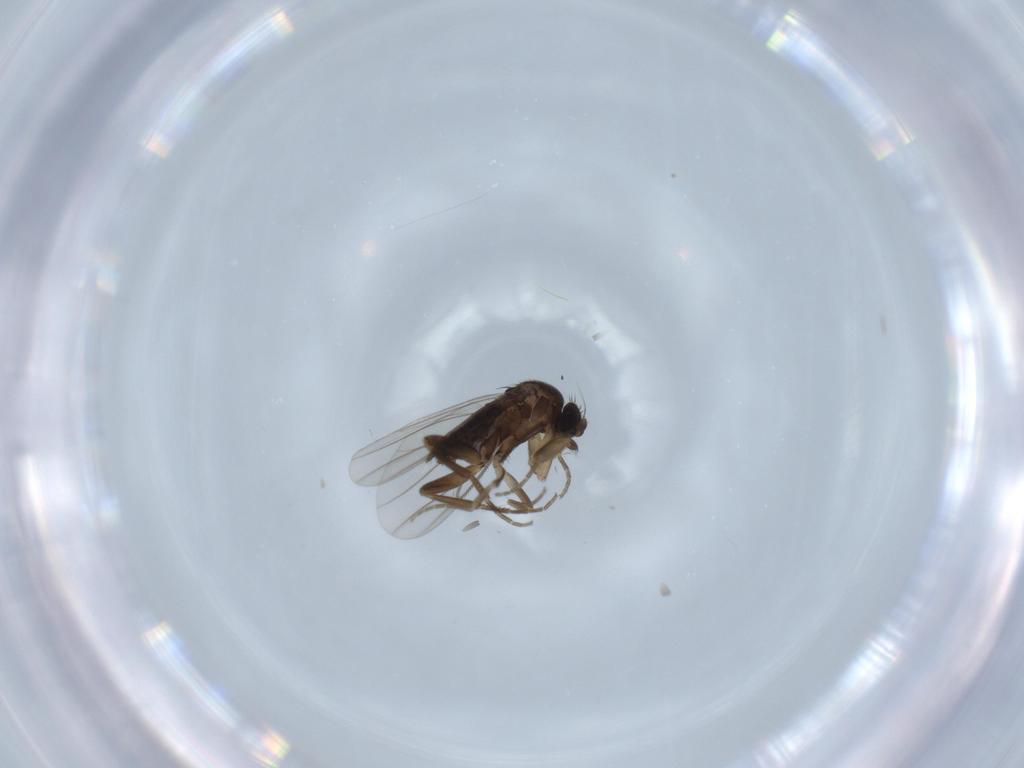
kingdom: Animalia
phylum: Arthropoda
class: Insecta
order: Diptera
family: Phoridae
